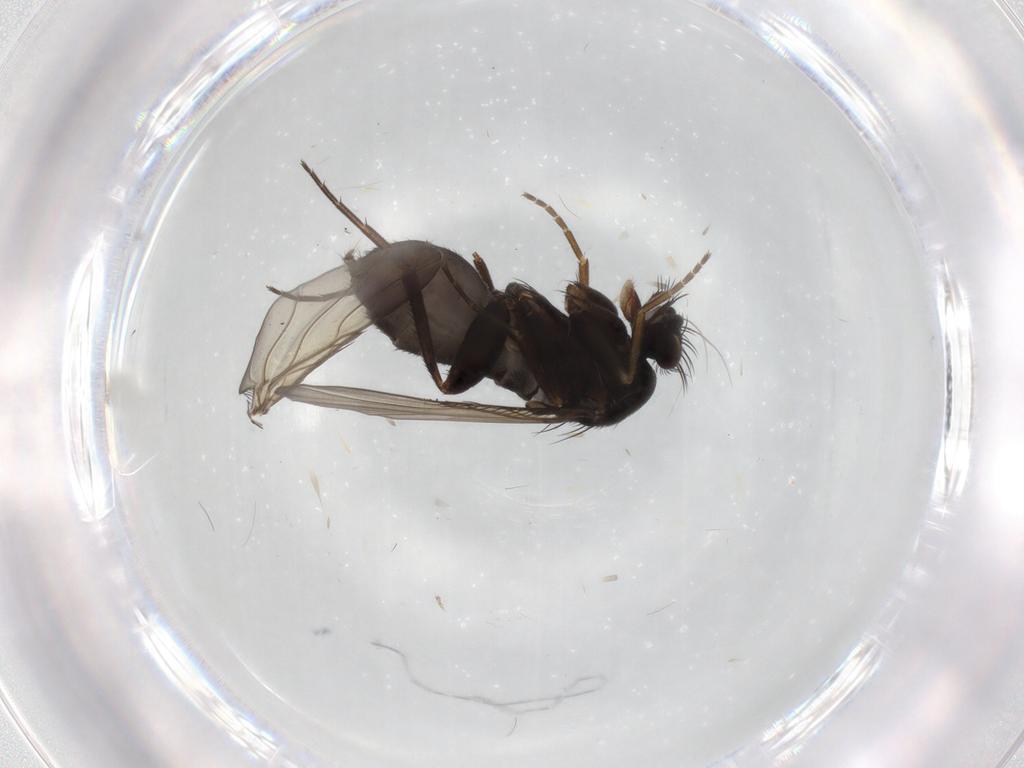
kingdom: Animalia
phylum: Arthropoda
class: Insecta
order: Diptera
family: Phoridae
